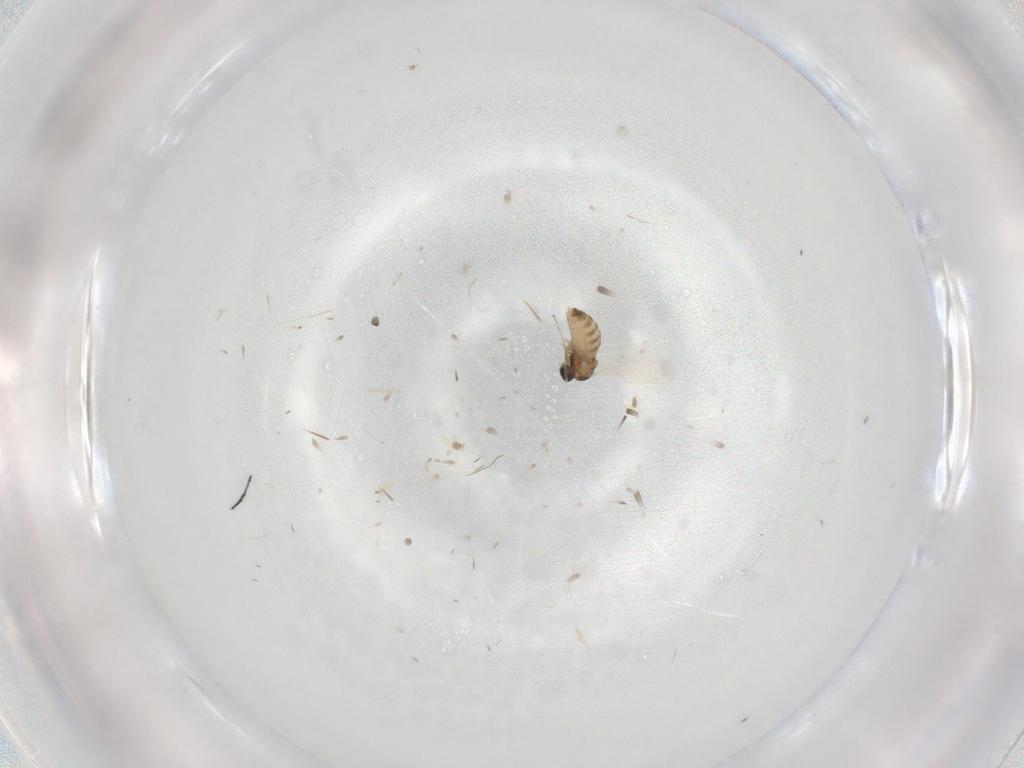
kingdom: Animalia
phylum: Arthropoda
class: Insecta
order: Diptera
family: Cecidomyiidae
